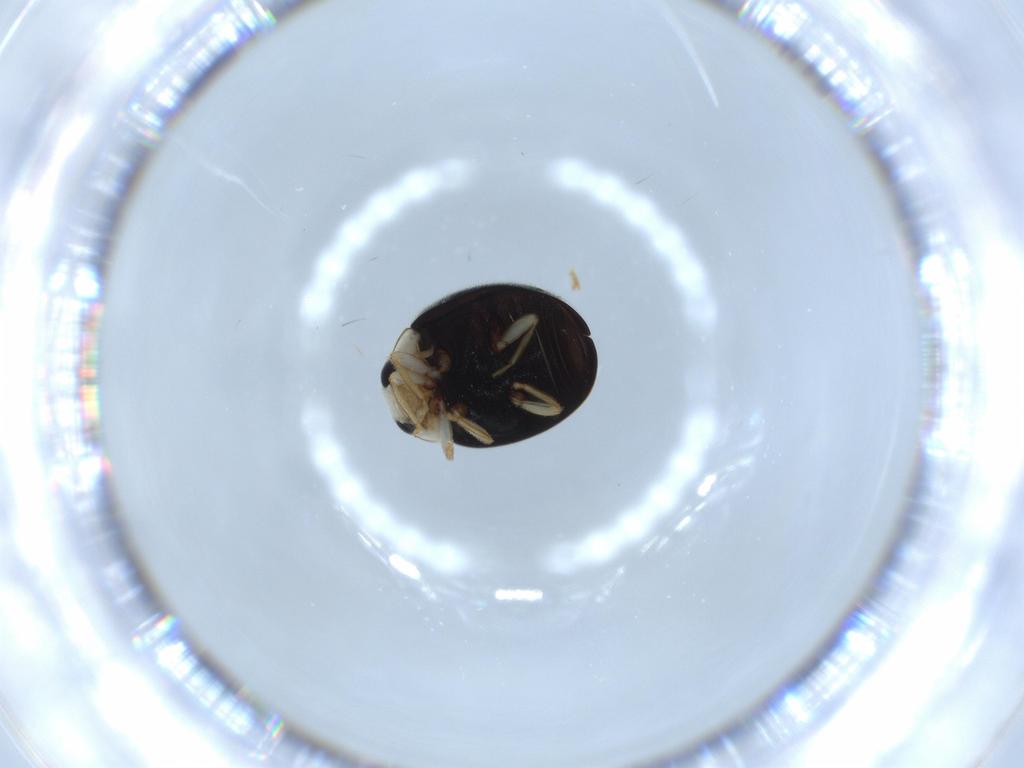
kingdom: Animalia
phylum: Arthropoda
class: Insecta
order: Coleoptera
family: Coccinellidae
